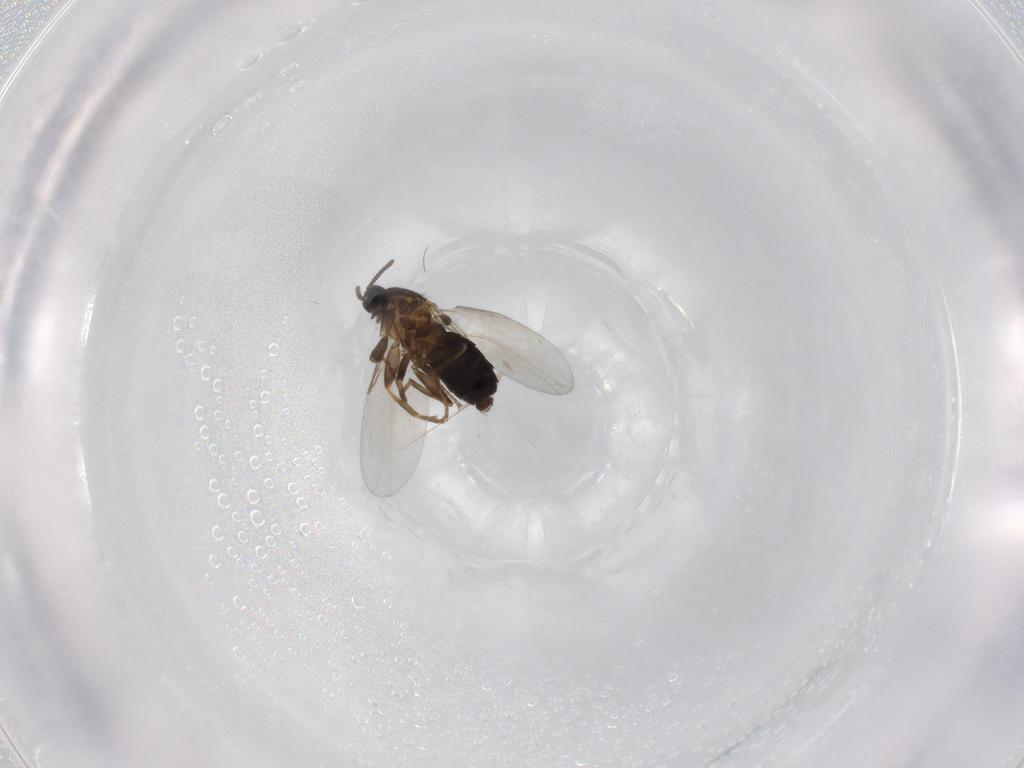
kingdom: Animalia
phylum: Arthropoda
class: Insecta
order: Diptera
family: Scatopsidae
